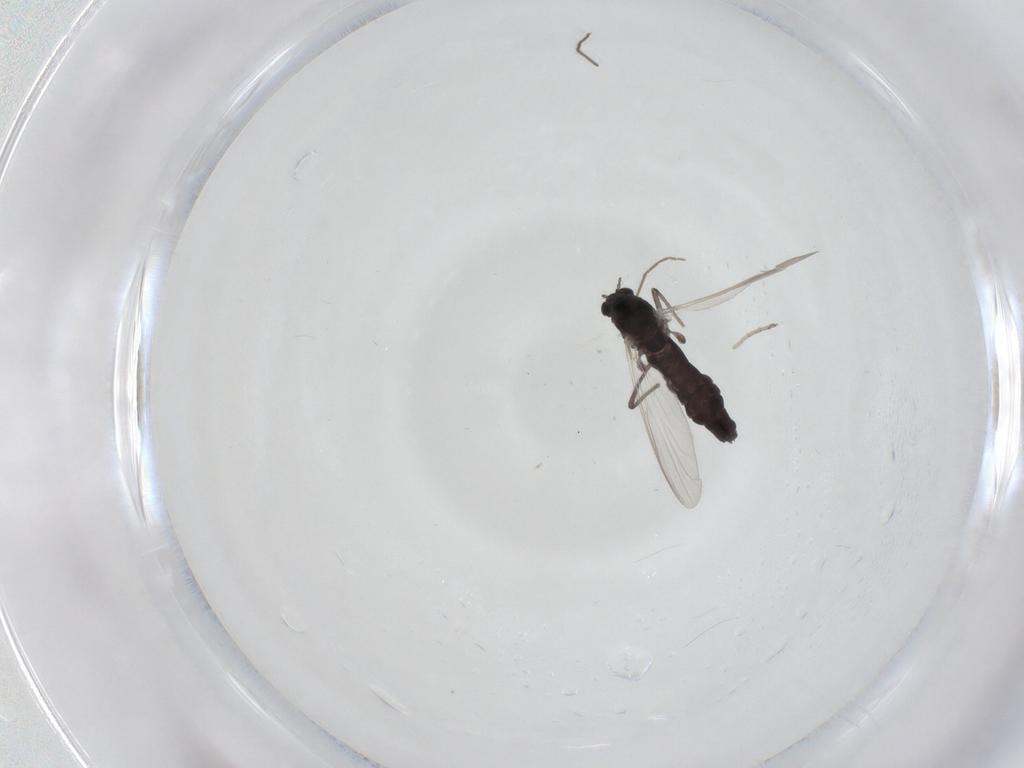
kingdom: Animalia
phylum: Arthropoda
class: Insecta
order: Diptera
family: Chironomidae
